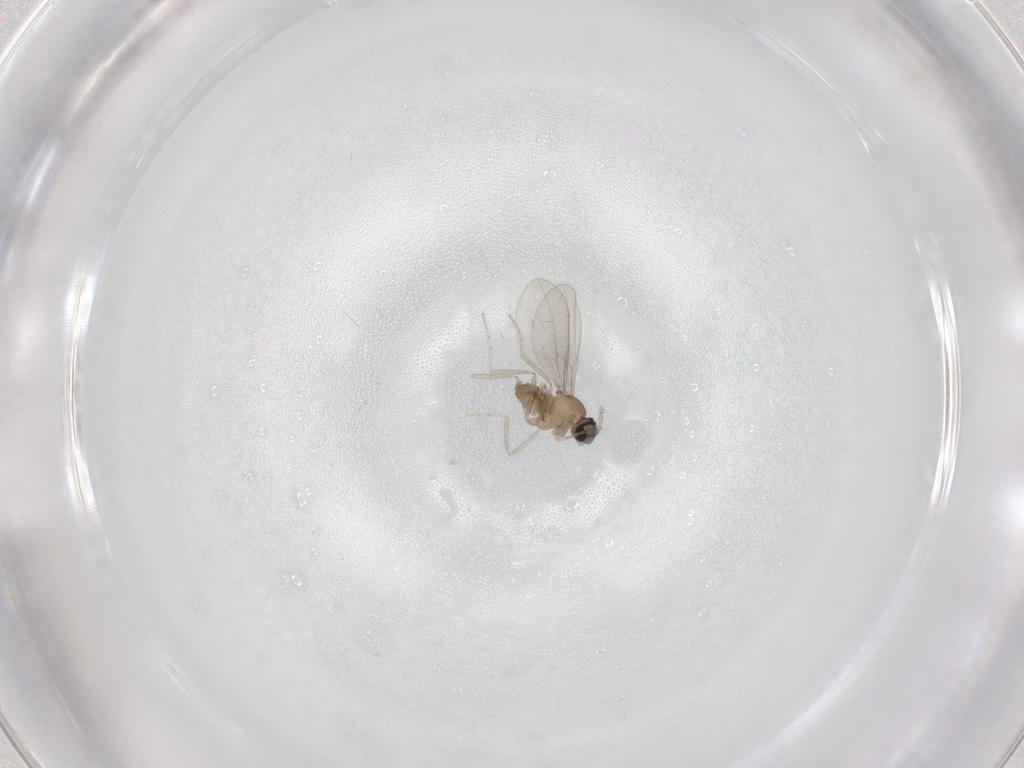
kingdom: Animalia
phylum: Arthropoda
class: Insecta
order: Diptera
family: Cecidomyiidae
